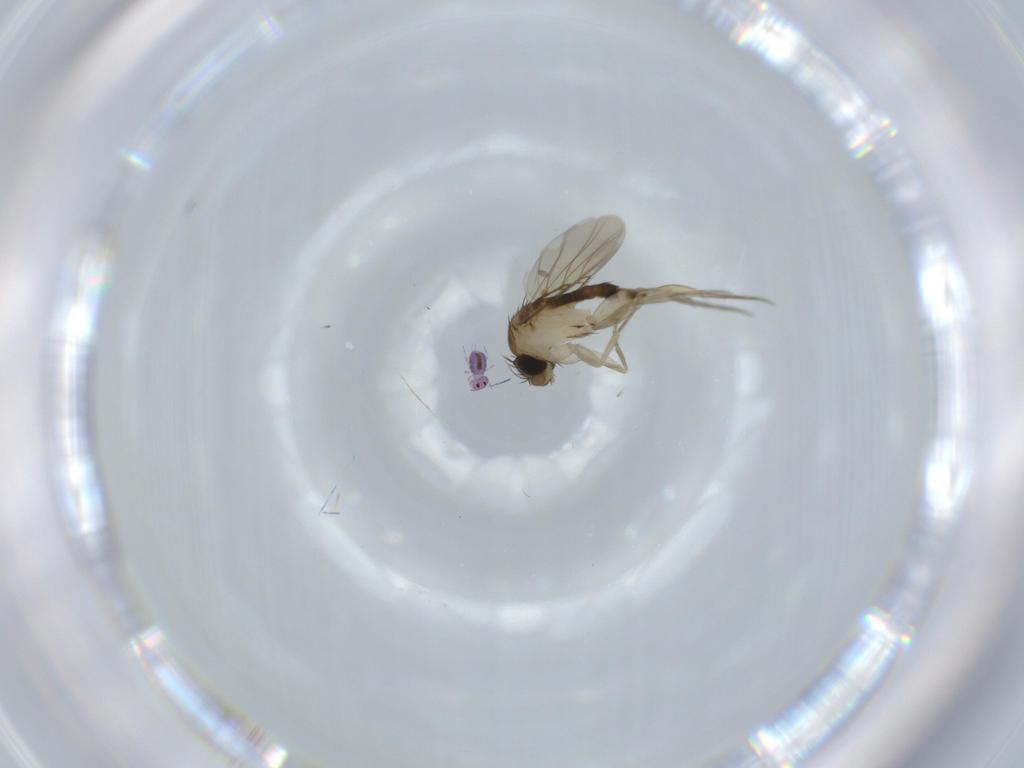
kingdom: Animalia
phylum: Arthropoda
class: Insecta
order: Diptera
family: Phoridae
